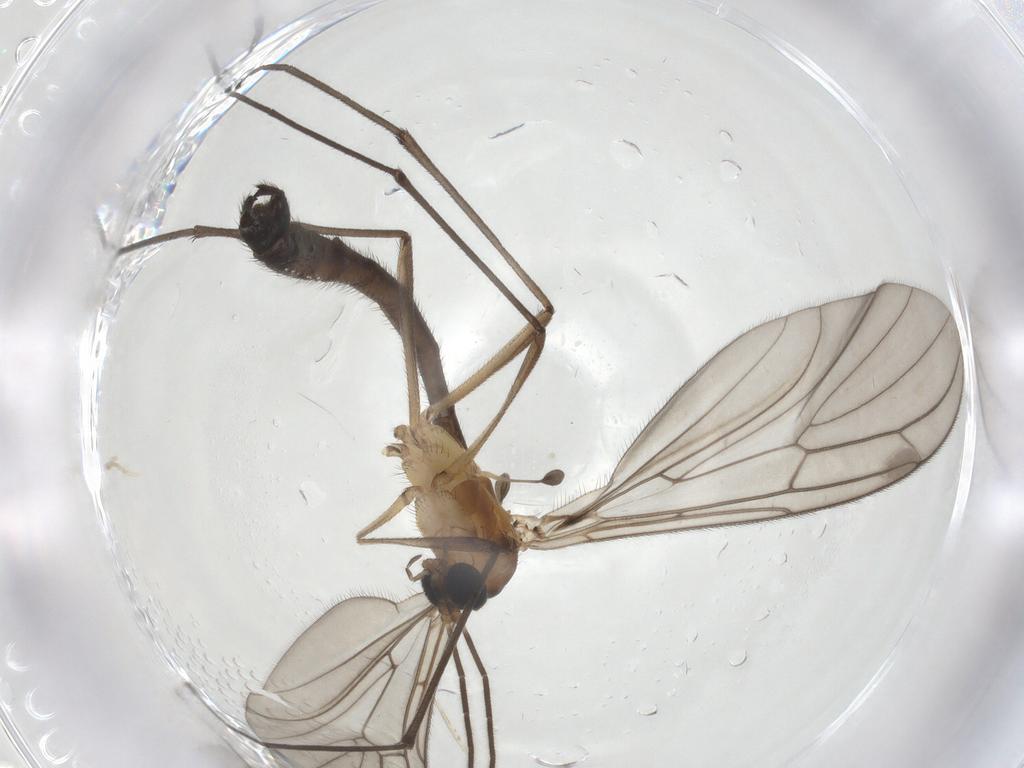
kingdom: Animalia
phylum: Arthropoda
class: Insecta
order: Diptera
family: Bolitophilidae
